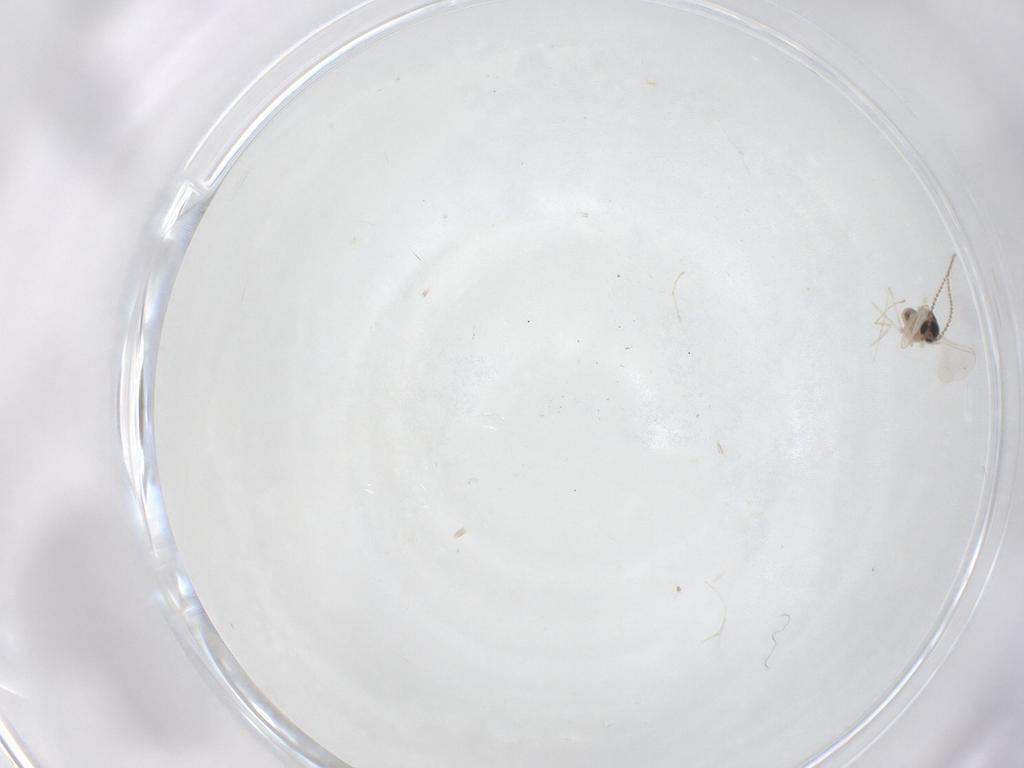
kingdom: Animalia
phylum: Arthropoda
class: Insecta
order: Diptera
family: Cecidomyiidae
